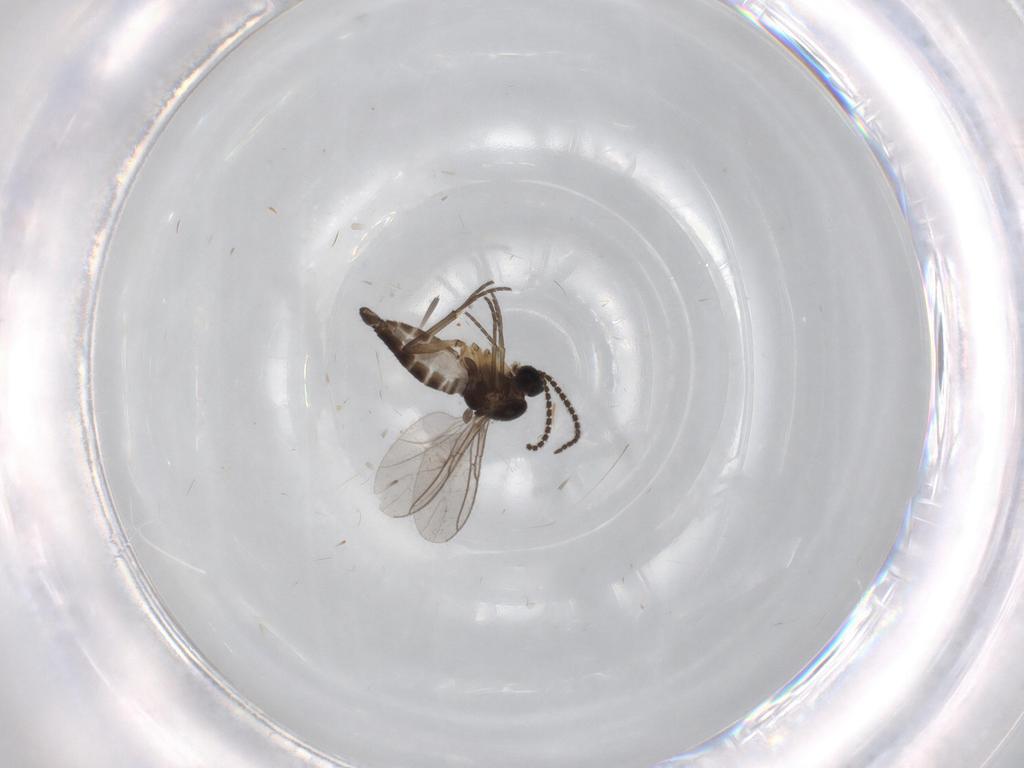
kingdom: Animalia
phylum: Arthropoda
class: Insecta
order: Diptera
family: Sciaridae
